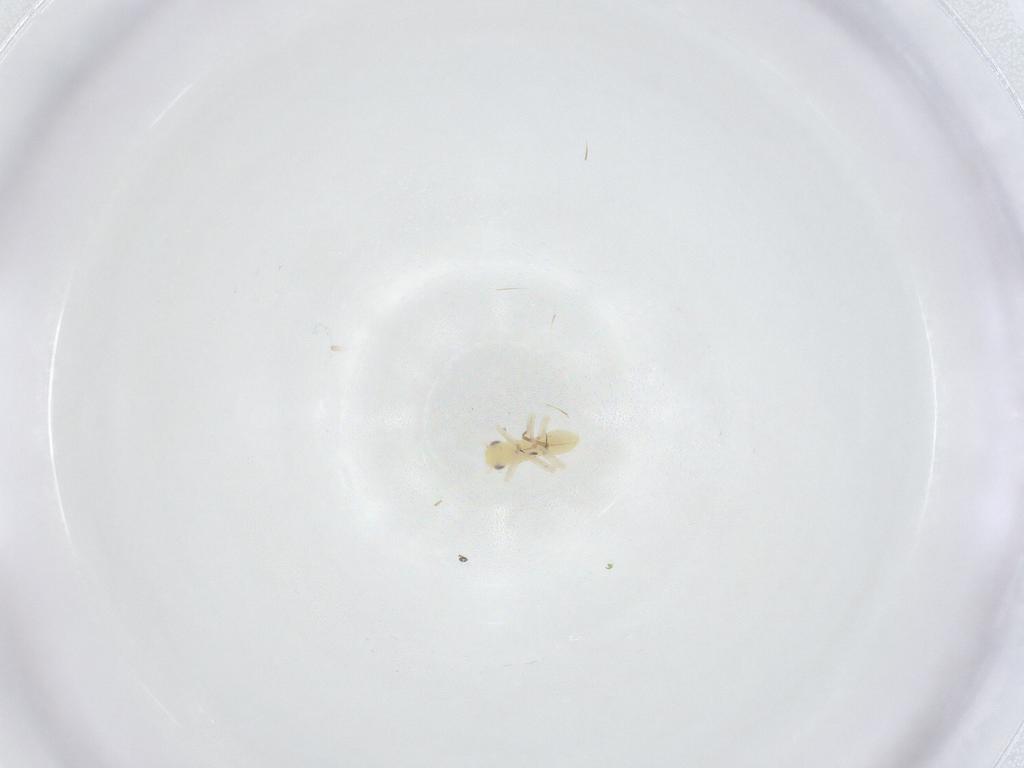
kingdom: Animalia
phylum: Arthropoda
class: Insecta
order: Hemiptera
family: Cicadellidae
